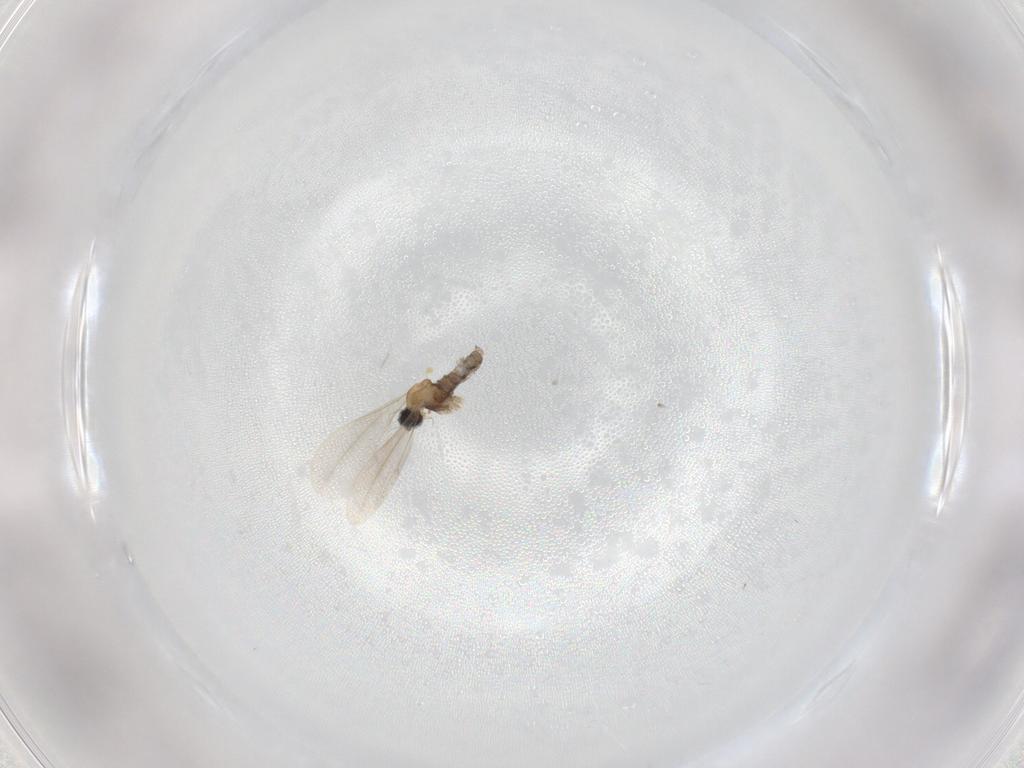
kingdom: Animalia
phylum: Arthropoda
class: Insecta
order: Diptera
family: Cecidomyiidae
